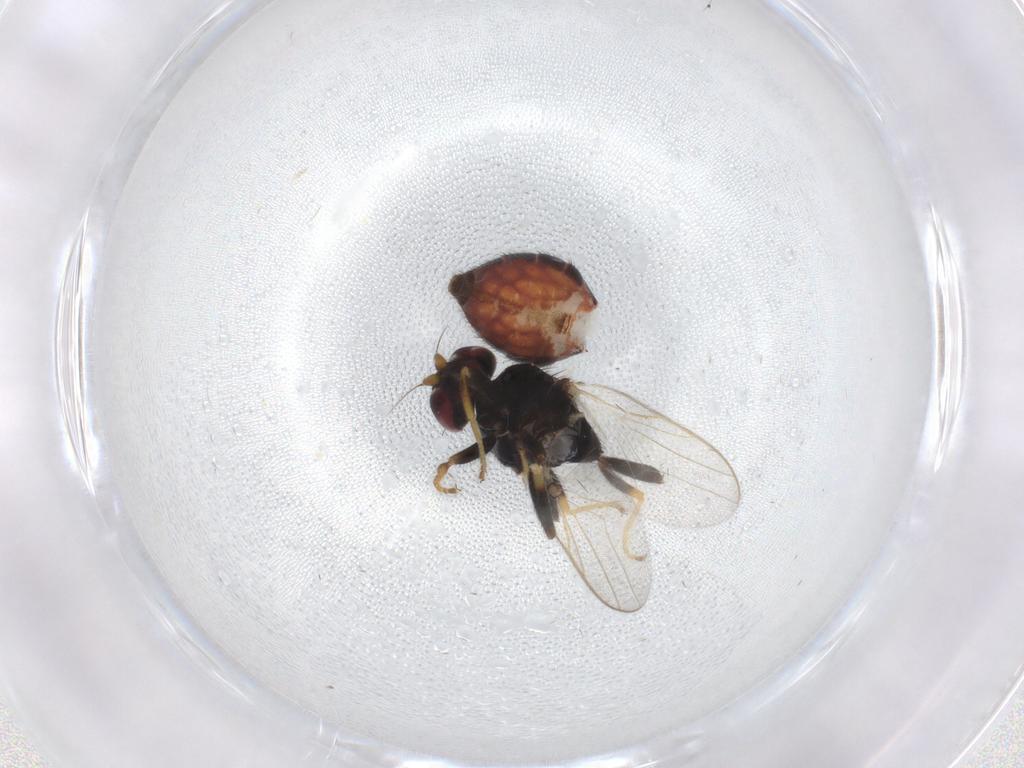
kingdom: Animalia
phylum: Arthropoda
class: Insecta
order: Diptera
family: Chloropidae
